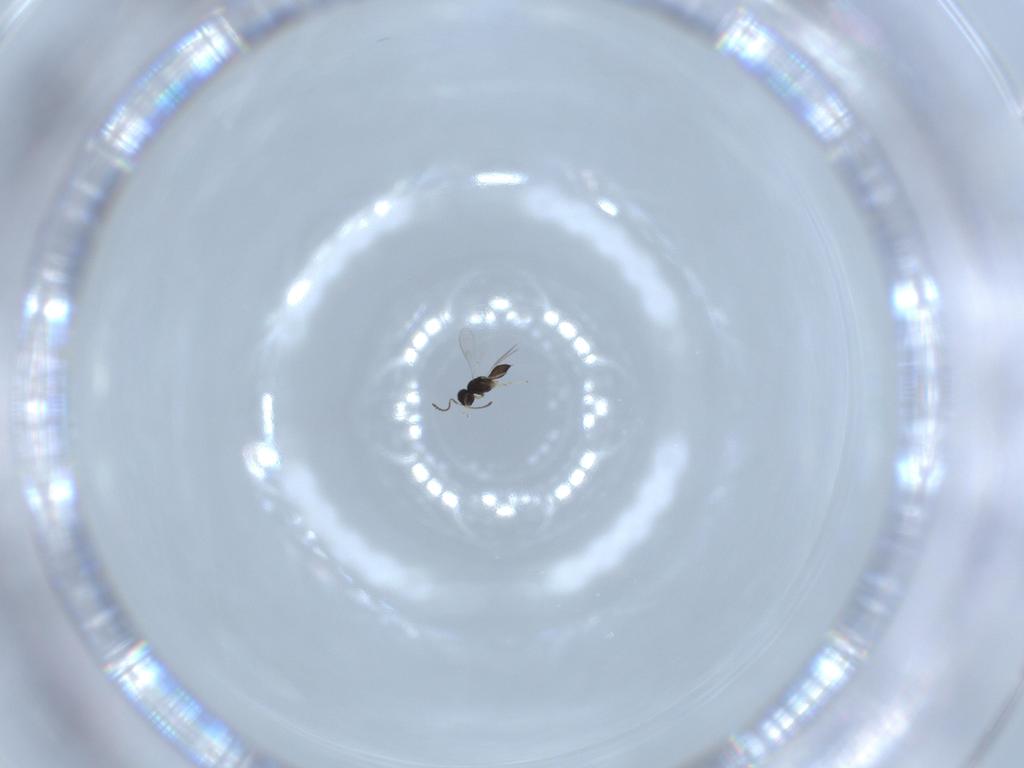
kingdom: Animalia
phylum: Arthropoda
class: Insecta
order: Hymenoptera
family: Scelionidae
